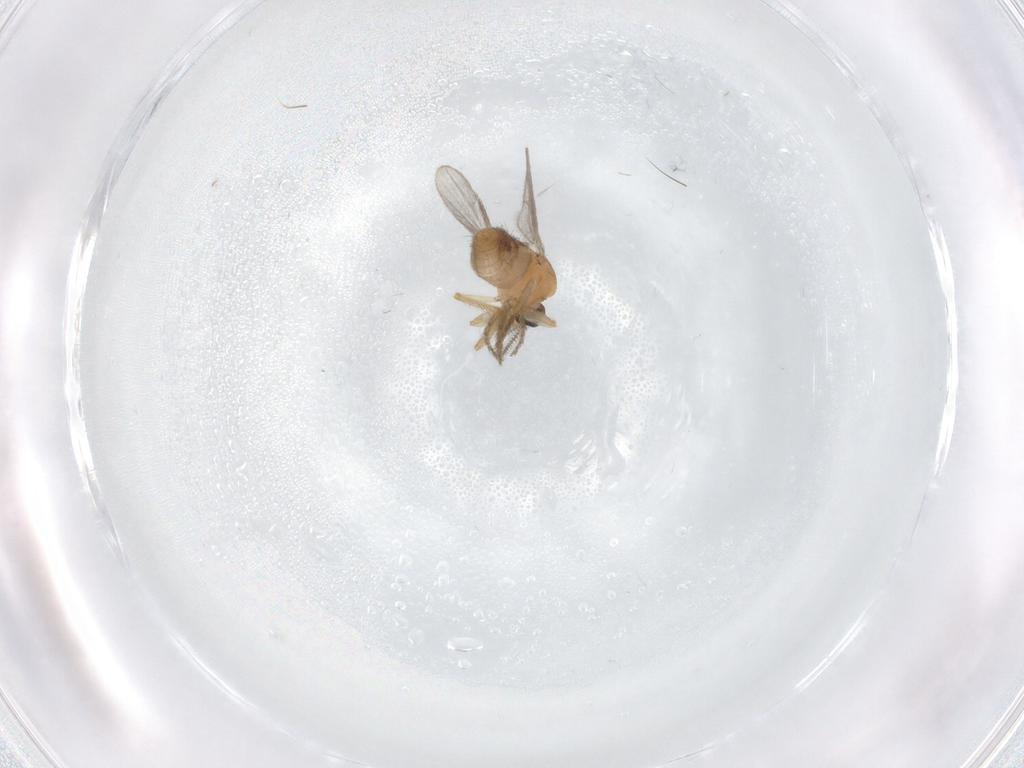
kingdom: Animalia
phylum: Arthropoda
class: Insecta
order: Diptera
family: Ceratopogonidae
